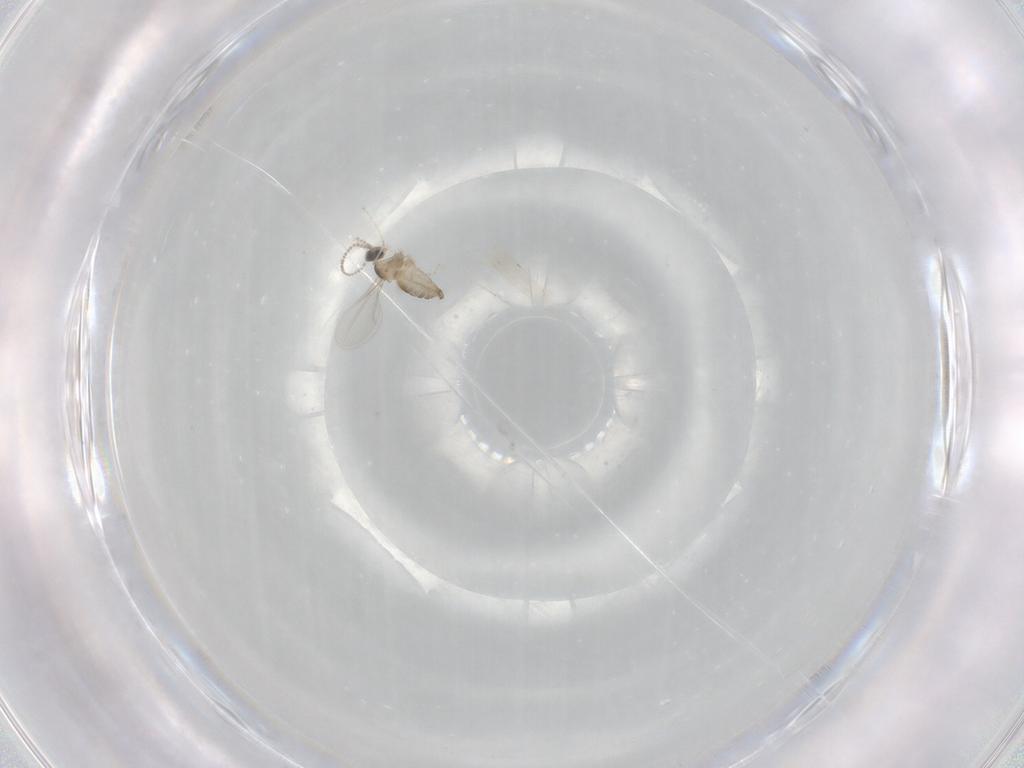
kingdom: Animalia
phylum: Arthropoda
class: Insecta
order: Diptera
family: Cecidomyiidae
